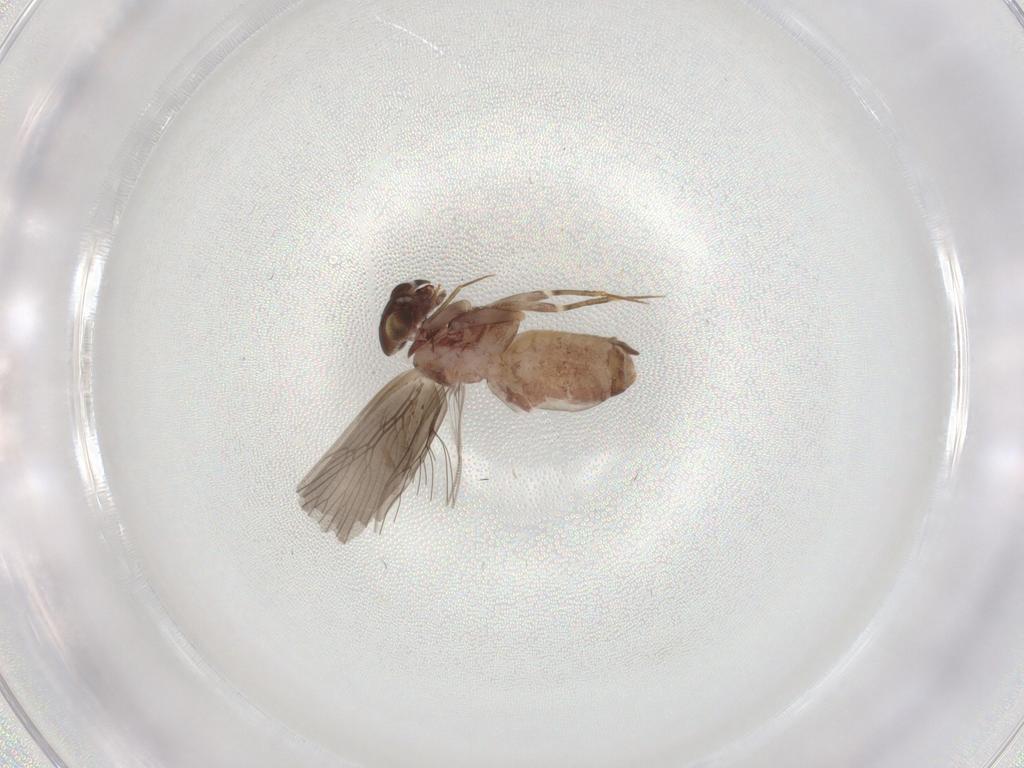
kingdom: Animalia
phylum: Arthropoda
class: Insecta
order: Psocodea
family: Lepidopsocidae
